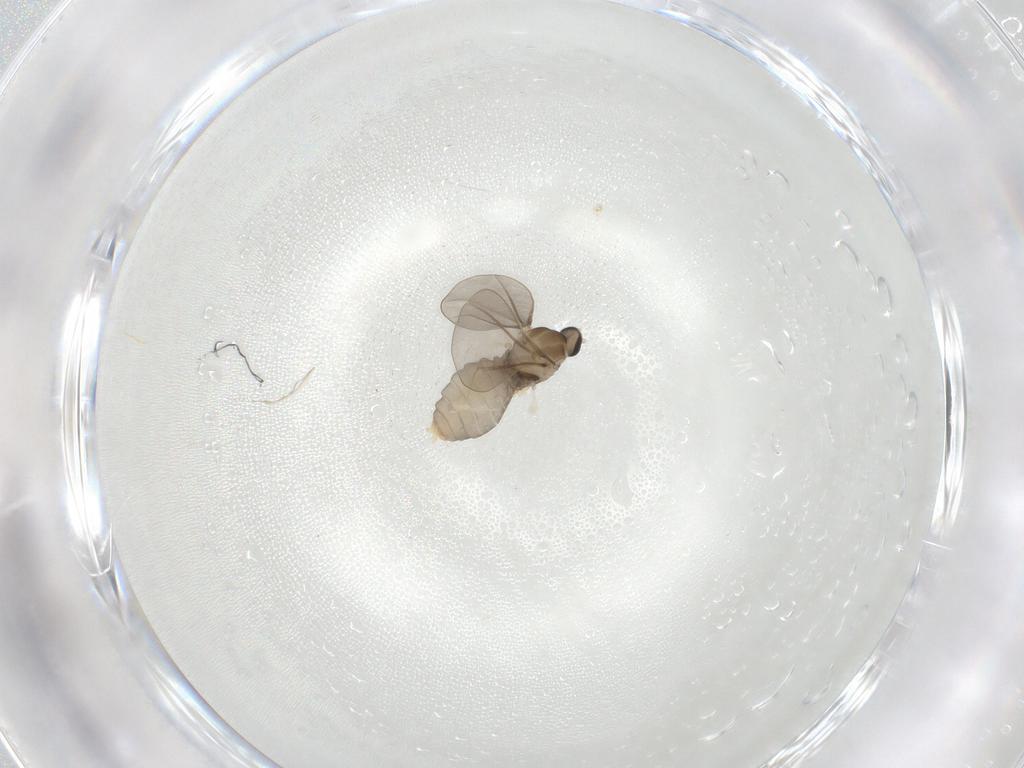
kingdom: Animalia
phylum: Arthropoda
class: Insecta
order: Diptera
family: Cecidomyiidae
